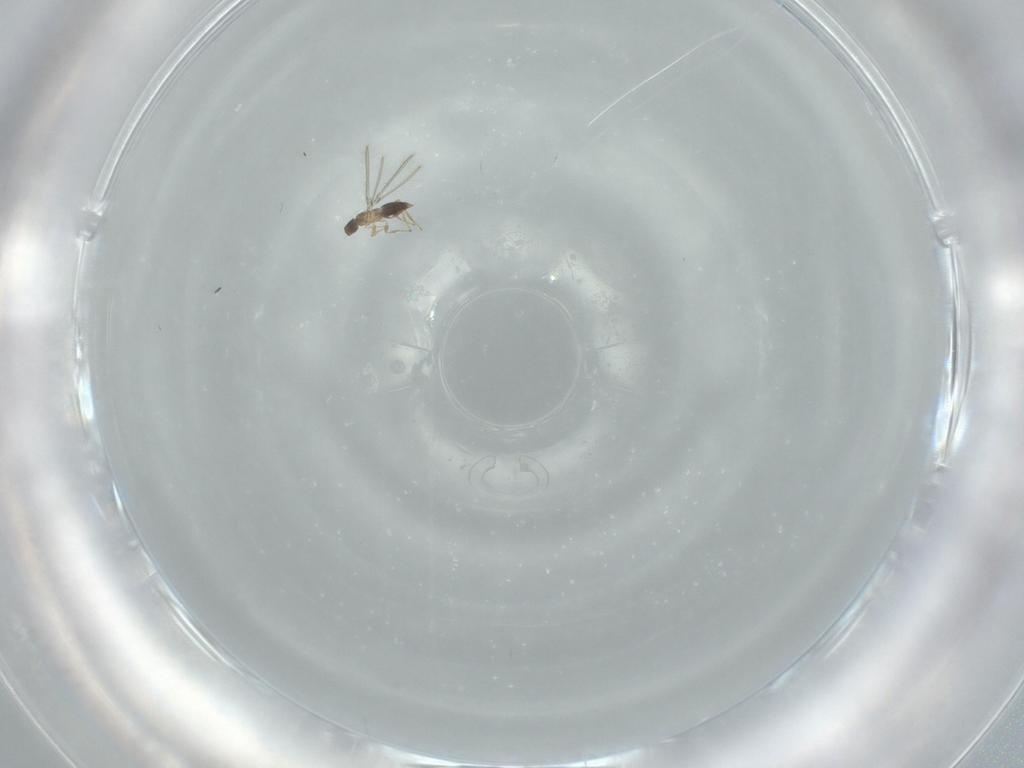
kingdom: Animalia
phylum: Arthropoda
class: Insecta
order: Hymenoptera
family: Mymaridae
